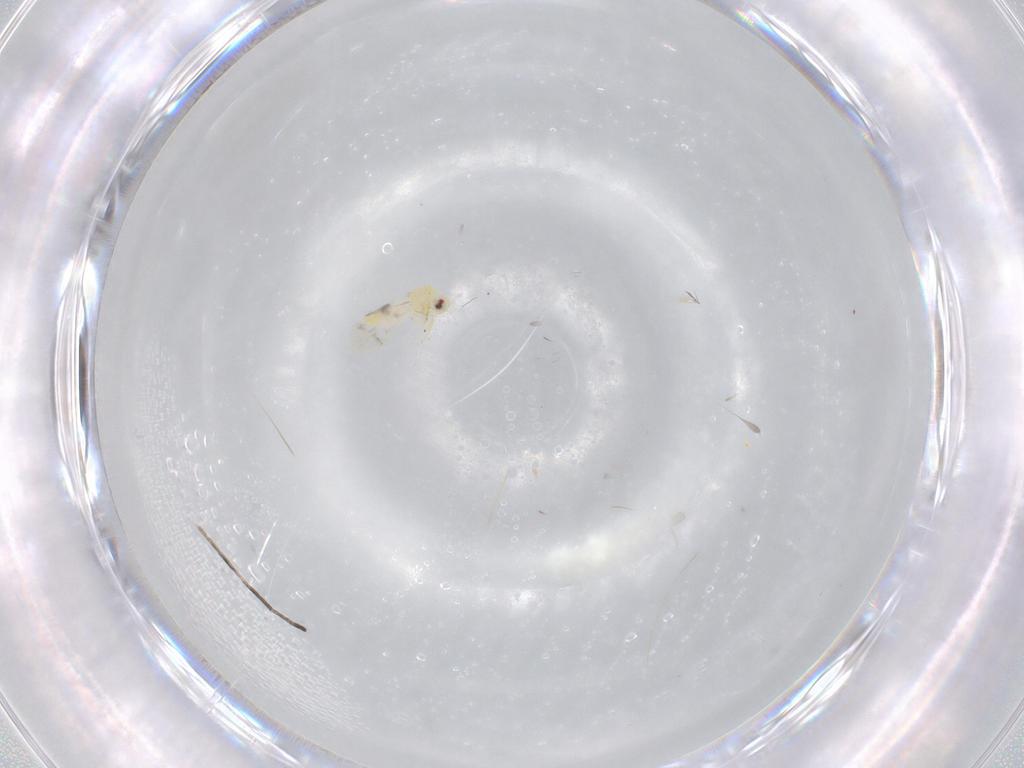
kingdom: Animalia
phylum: Arthropoda
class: Insecta
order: Hemiptera
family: Aleyrodidae
